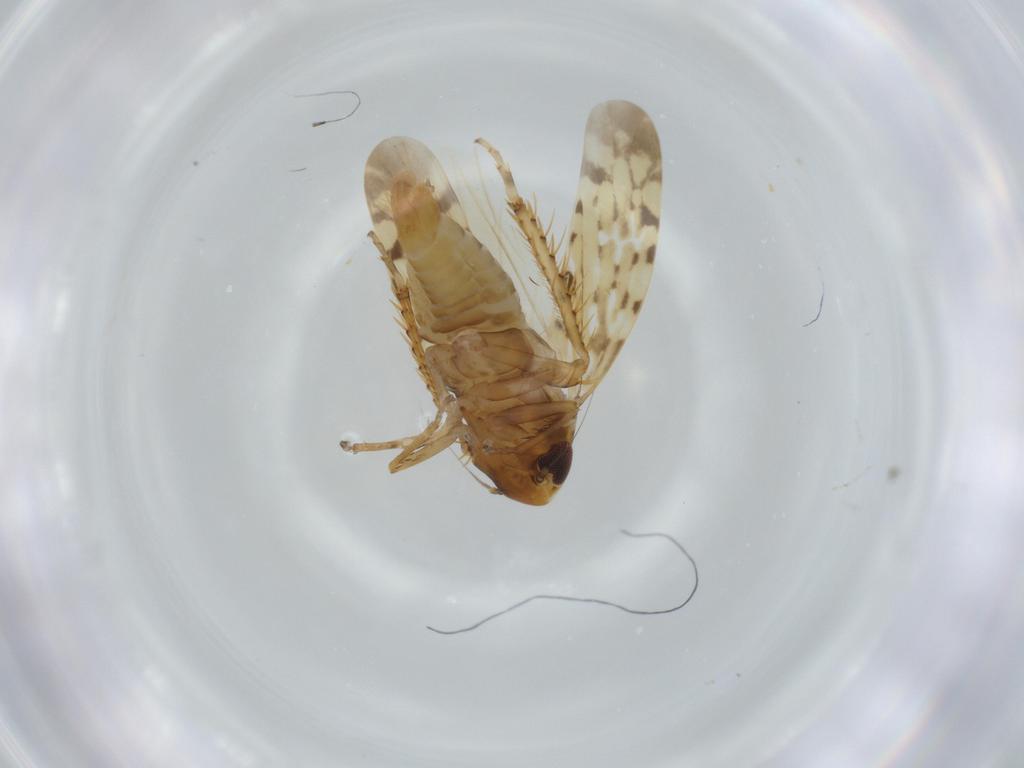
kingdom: Animalia
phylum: Arthropoda
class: Insecta
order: Hemiptera
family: Cicadellidae
